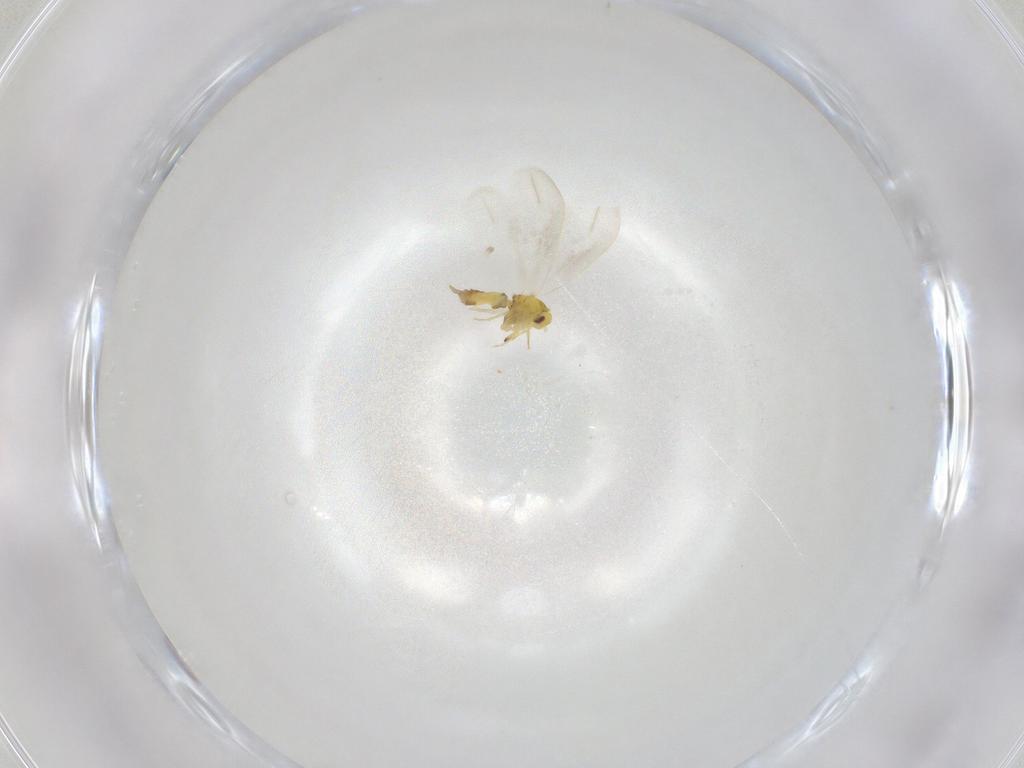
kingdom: Animalia
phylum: Arthropoda
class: Insecta
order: Hemiptera
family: Aleyrodidae
